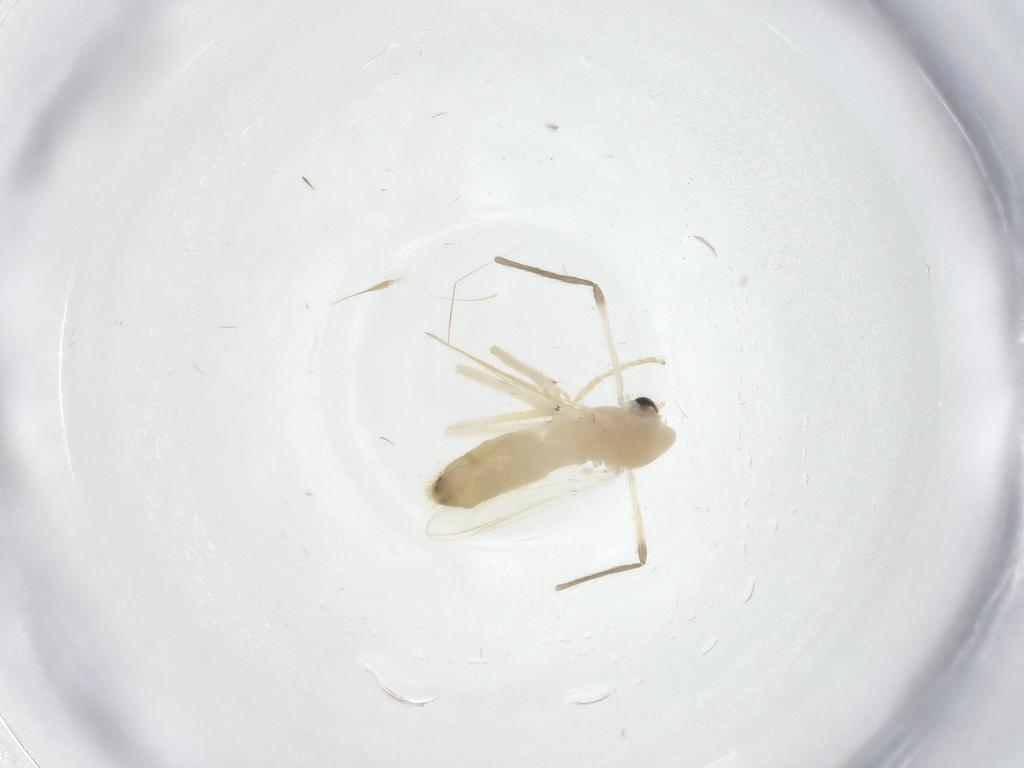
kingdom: Animalia
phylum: Arthropoda
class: Insecta
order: Diptera
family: Chironomidae
